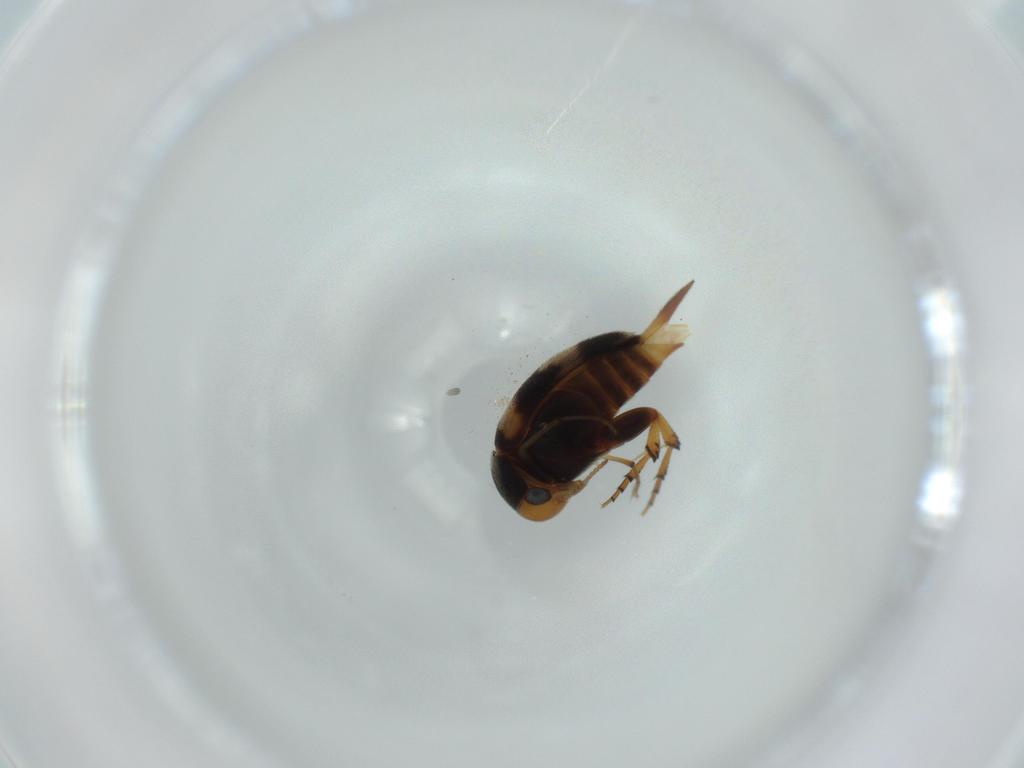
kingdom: Animalia
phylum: Arthropoda
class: Insecta
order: Coleoptera
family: Mordellidae
